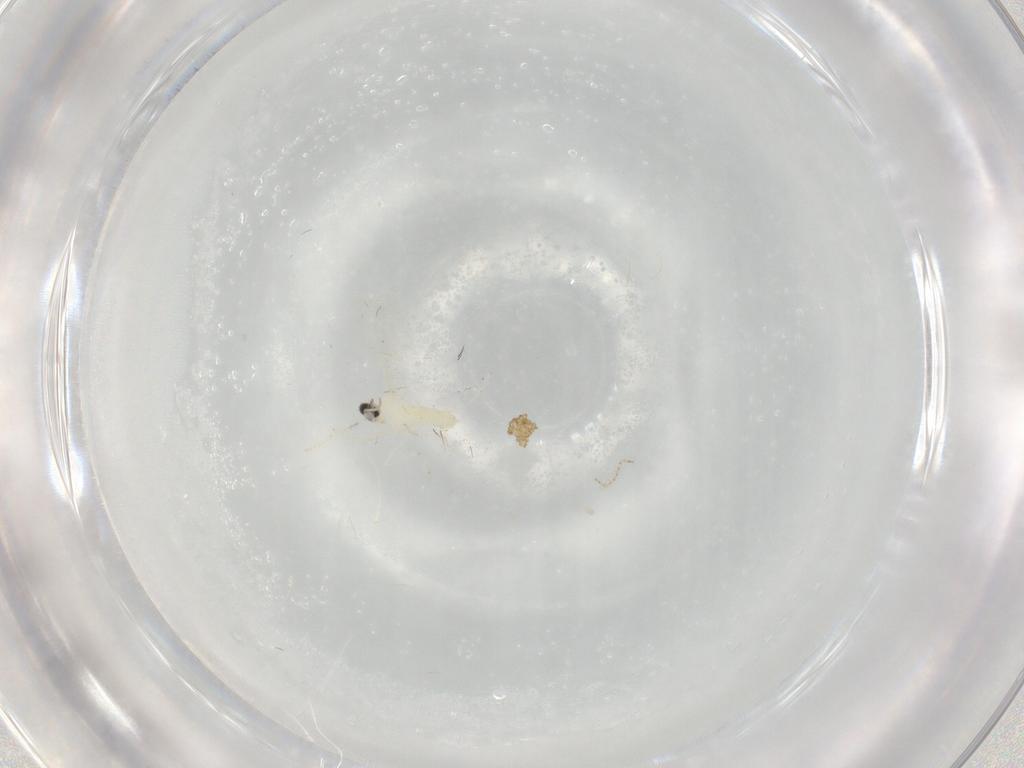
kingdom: Animalia
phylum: Arthropoda
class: Insecta
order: Diptera
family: Cecidomyiidae
